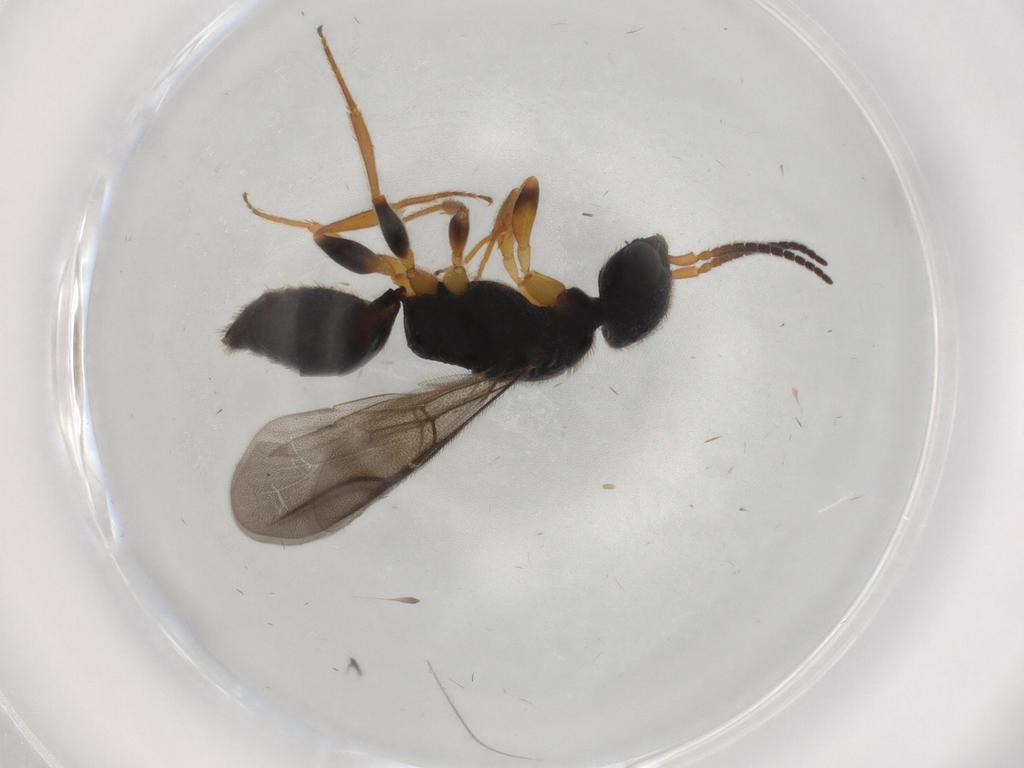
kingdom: Animalia
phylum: Arthropoda
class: Insecta
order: Hymenoptera
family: Bethylidae
